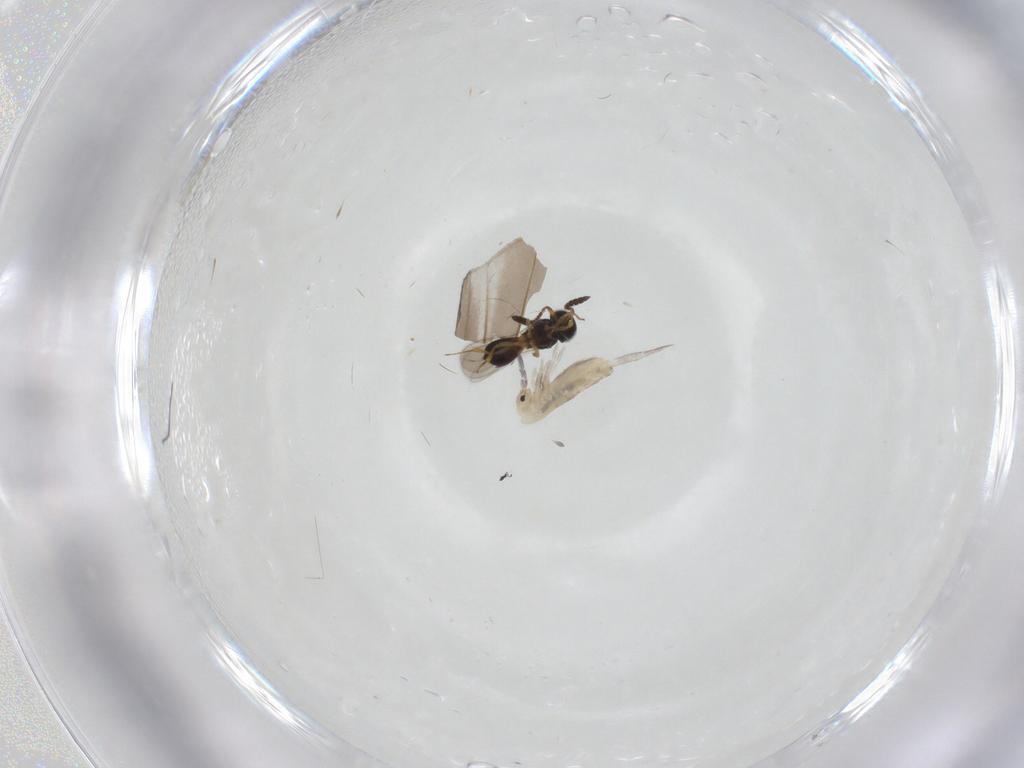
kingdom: Animalia
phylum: Arthropoda
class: Insecta
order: Hymenoptera
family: Scelionidae
